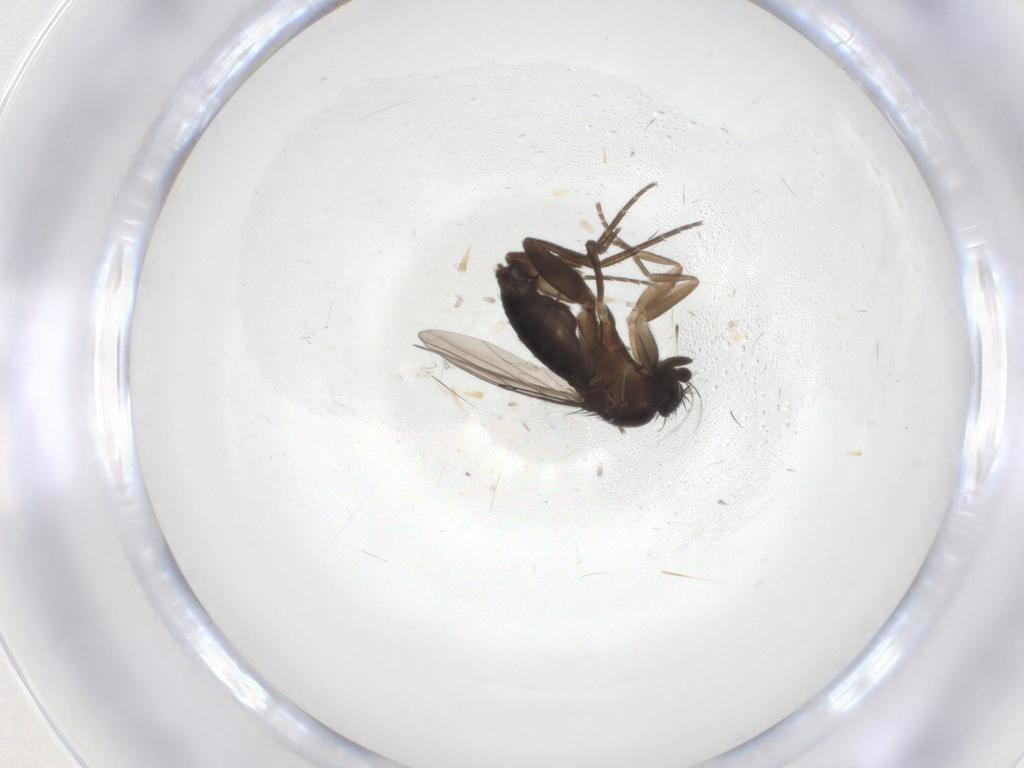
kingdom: Animalia
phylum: Arthropoda
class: Insecta
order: Diptera
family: Phoridae
